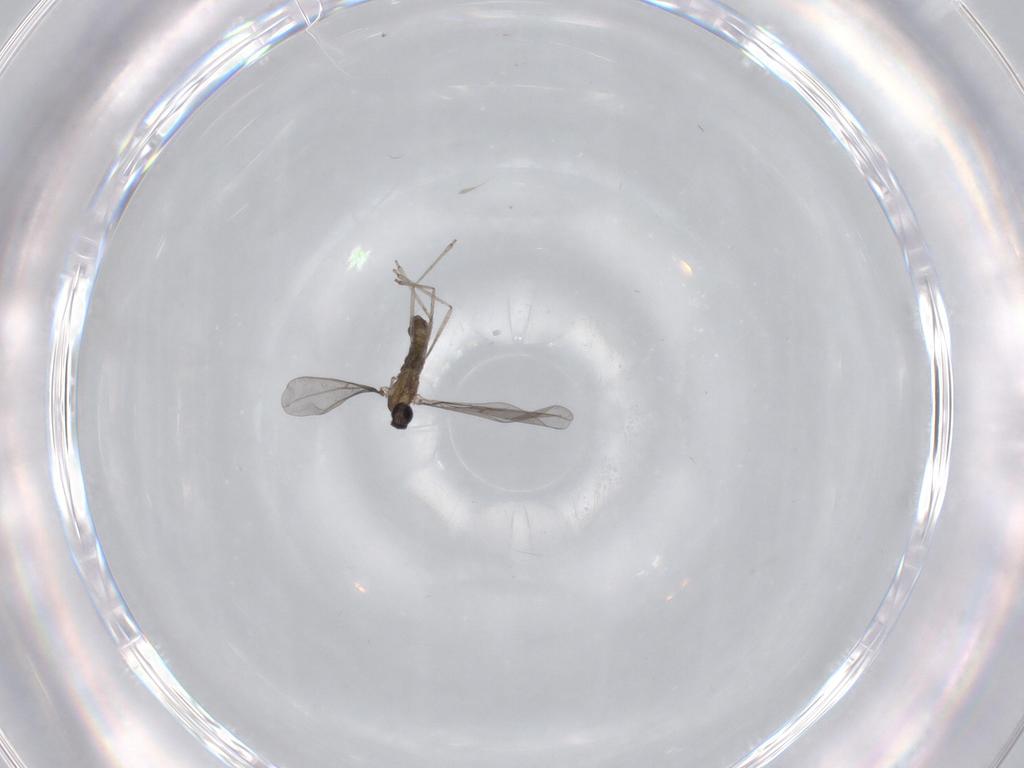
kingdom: Animalia
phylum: Arthropoda
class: Insecta
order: Diptera
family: Cecidomyiidae
